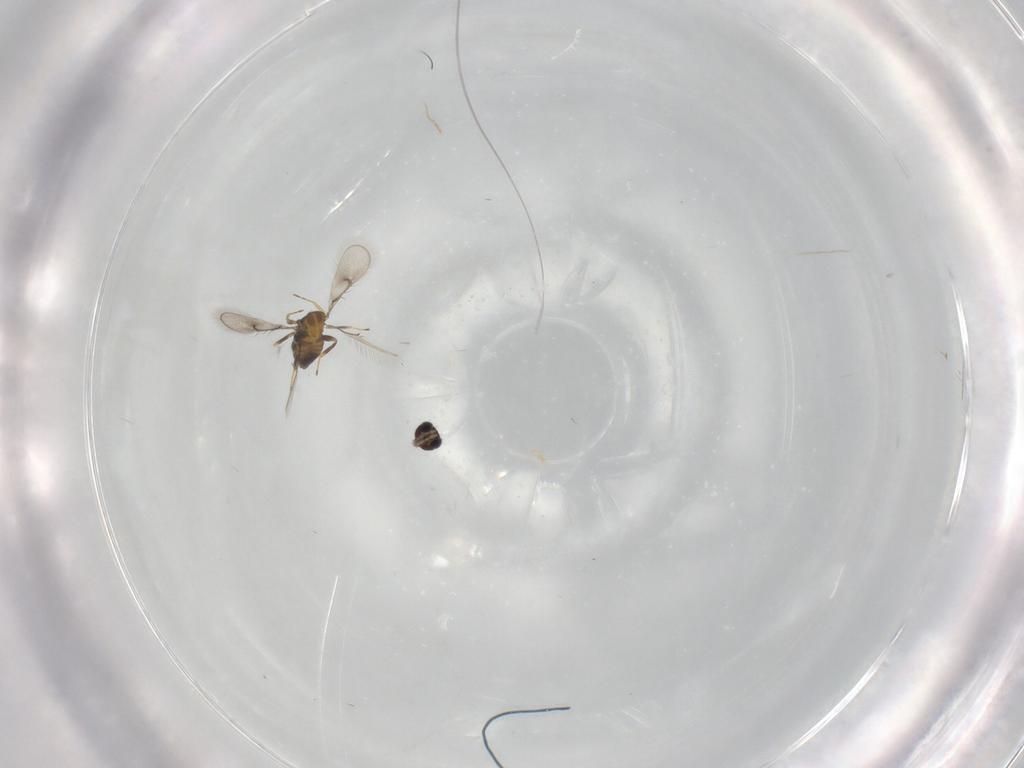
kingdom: Animalia
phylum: Arthropoda
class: Insecta
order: Hymenoptera
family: Trichogrammatidae
